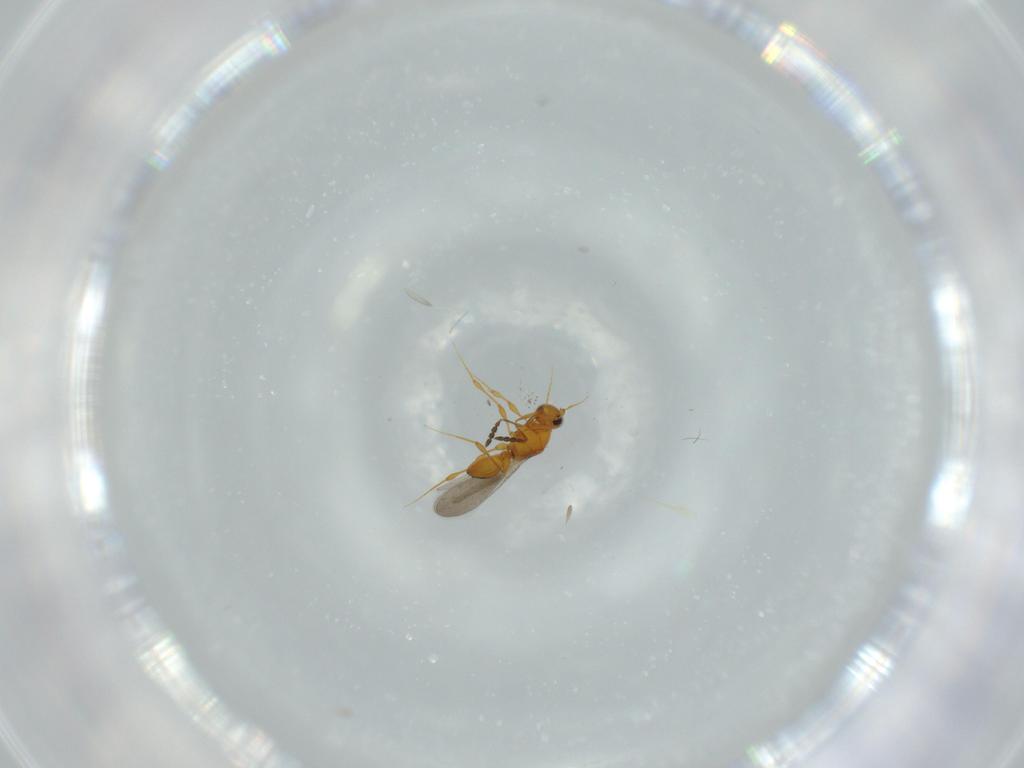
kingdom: Animalia
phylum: Arthropoda
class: Insecta
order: Hymenoptera
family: Platygastridae
